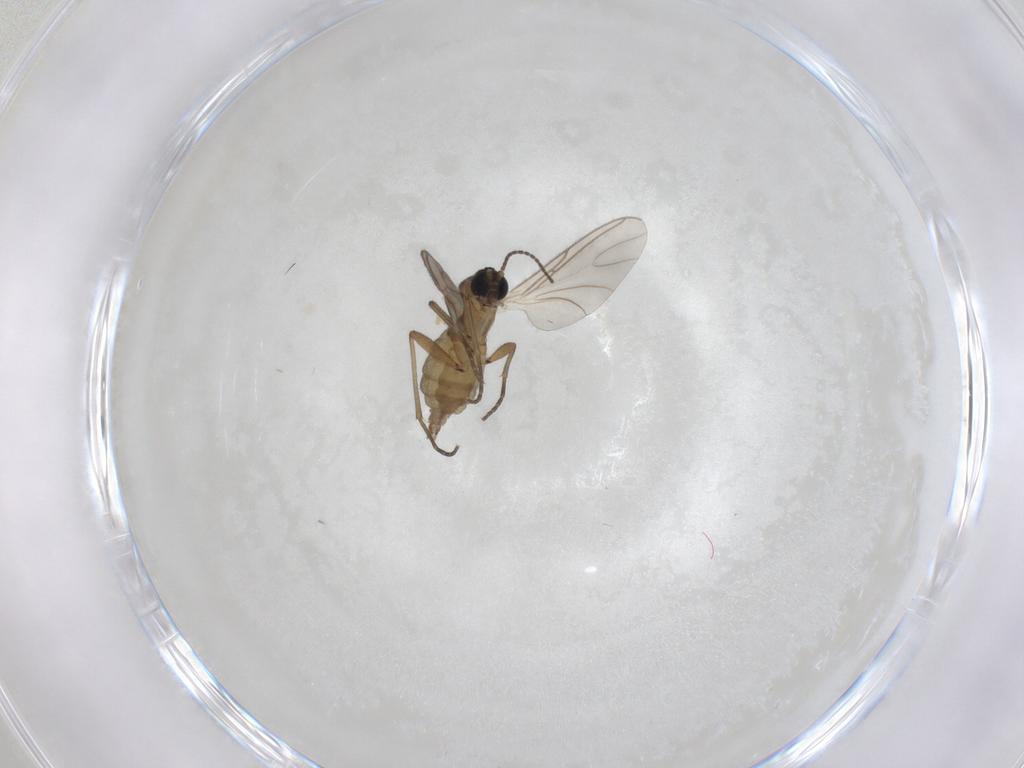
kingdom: Animalia
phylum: Arthropoda
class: Insecta
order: Diptera
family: Cecidomyiidae
